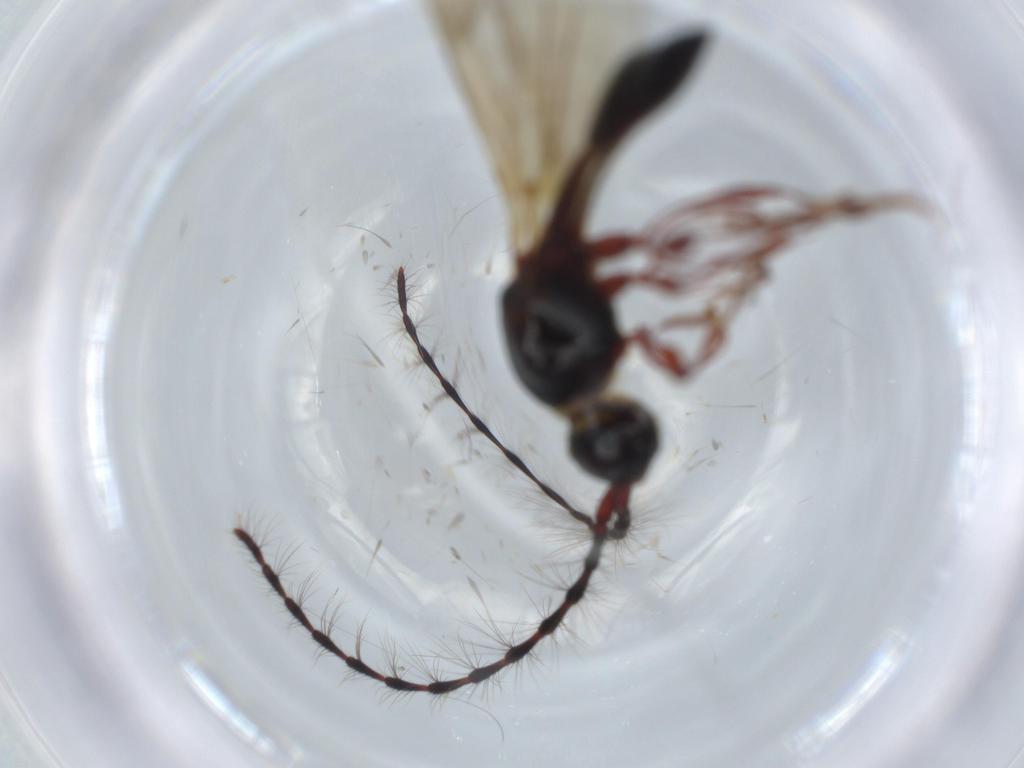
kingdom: Animalia
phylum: Arthropoda
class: Insecta
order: Hymenoptera
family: Diapriidae
